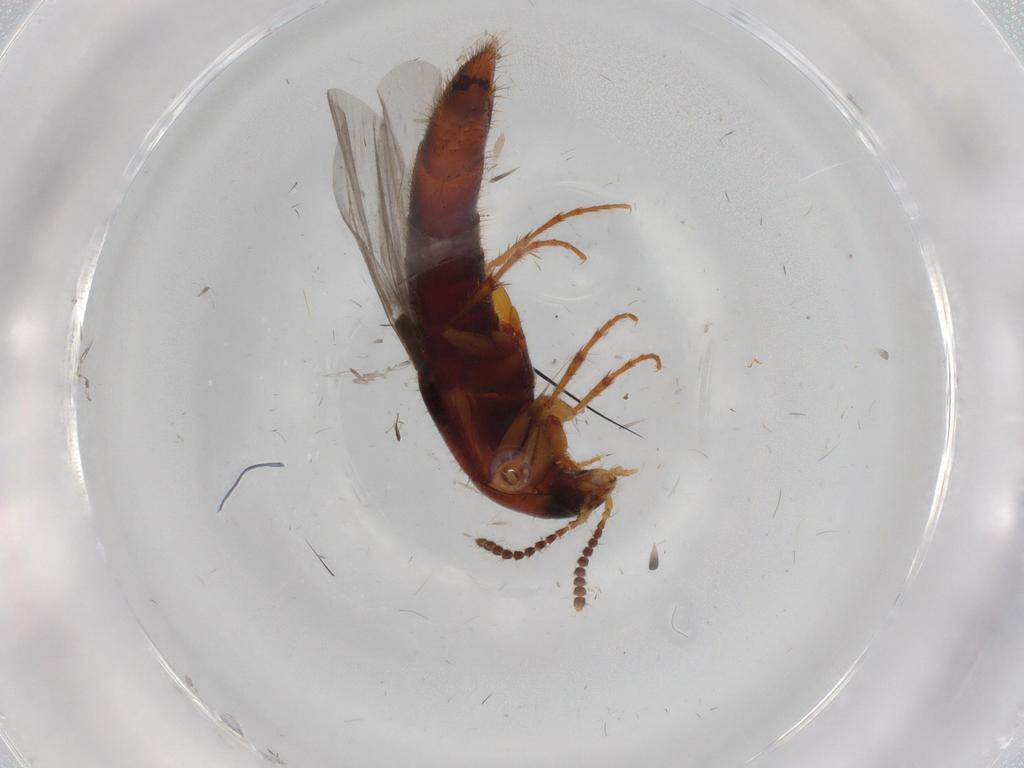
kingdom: Animalia
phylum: Arthropoda
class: Insecta
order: Coleoptera
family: Staphylinidae
